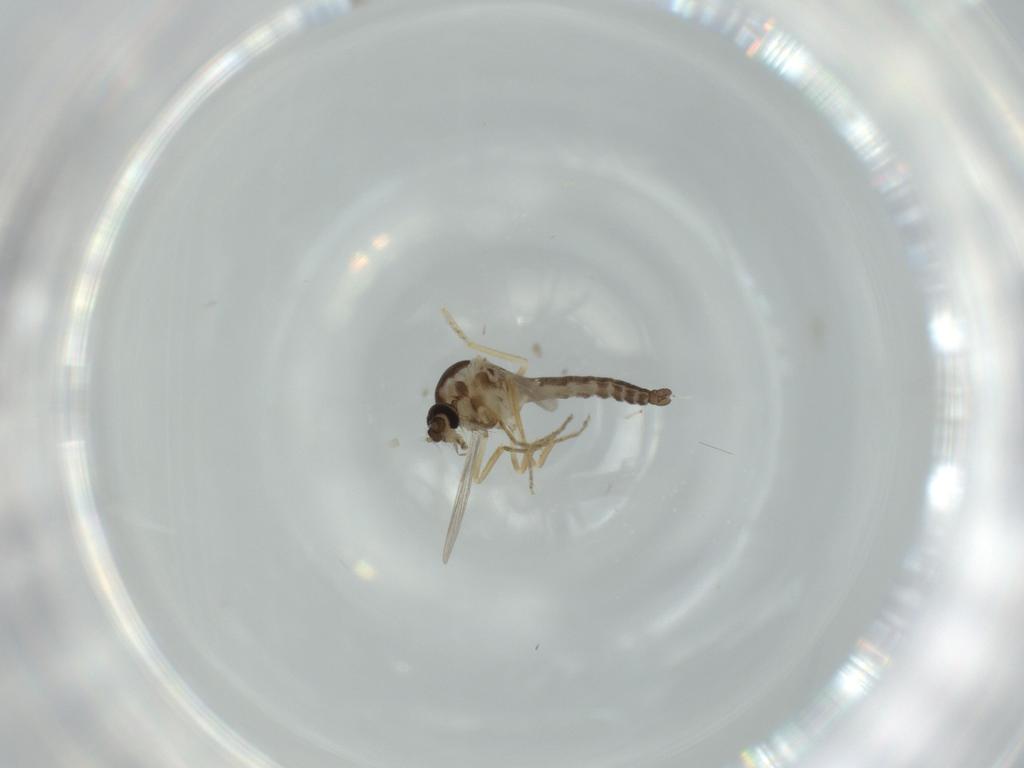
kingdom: Animalia
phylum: Arthropoda
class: Insecta
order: Diptera
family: Ceratopogonidae
